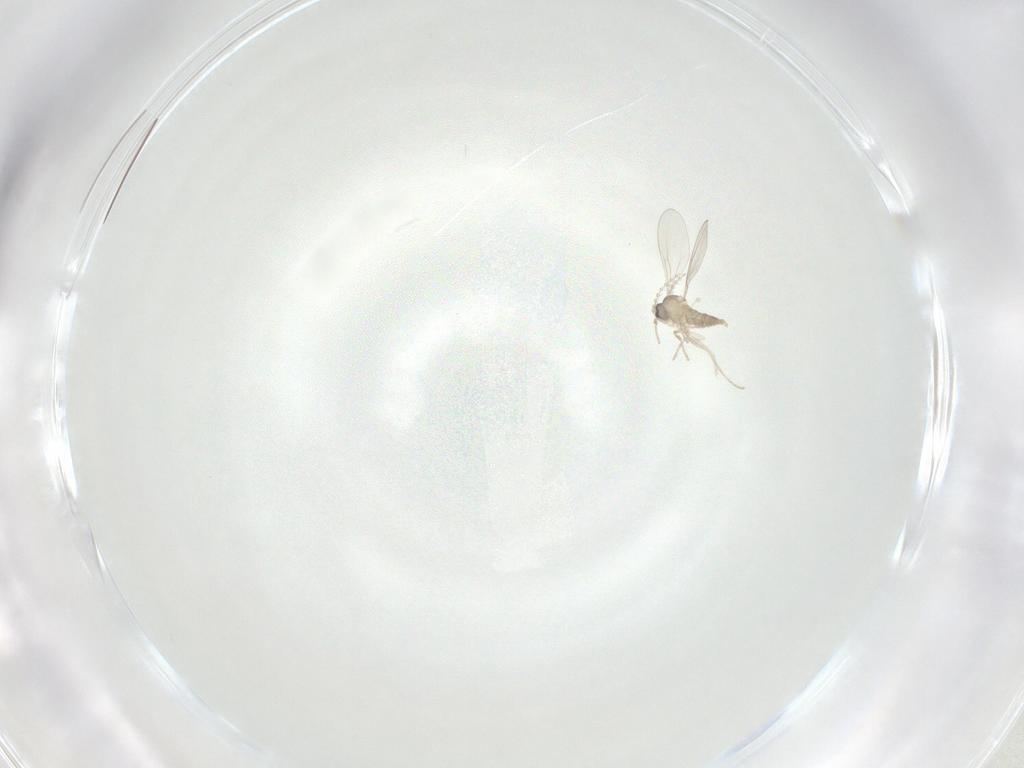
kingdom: Animalia
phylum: Arthropoda
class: Insecta
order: Diptera
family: Cecidomyiidae
